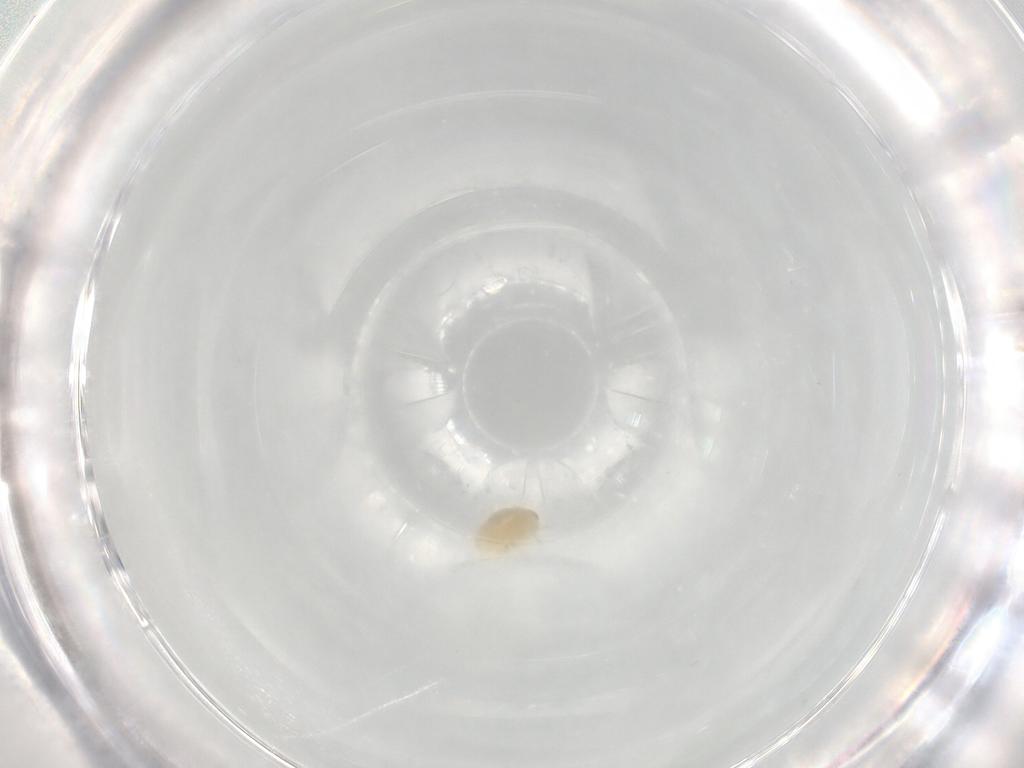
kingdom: Animalia
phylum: Arthropoda
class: Arachnida
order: Trombidiformes
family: Microtrombidiidae
